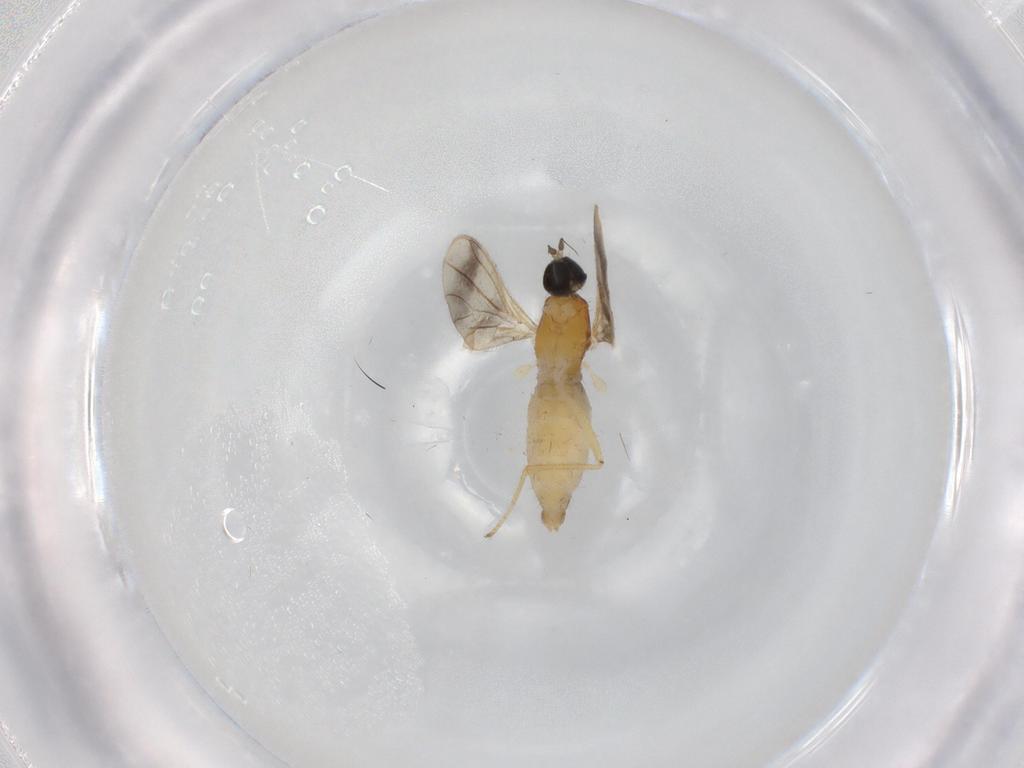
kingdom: Animalia
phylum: Arthropoda
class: Insecta
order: Diptera
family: Empididae
